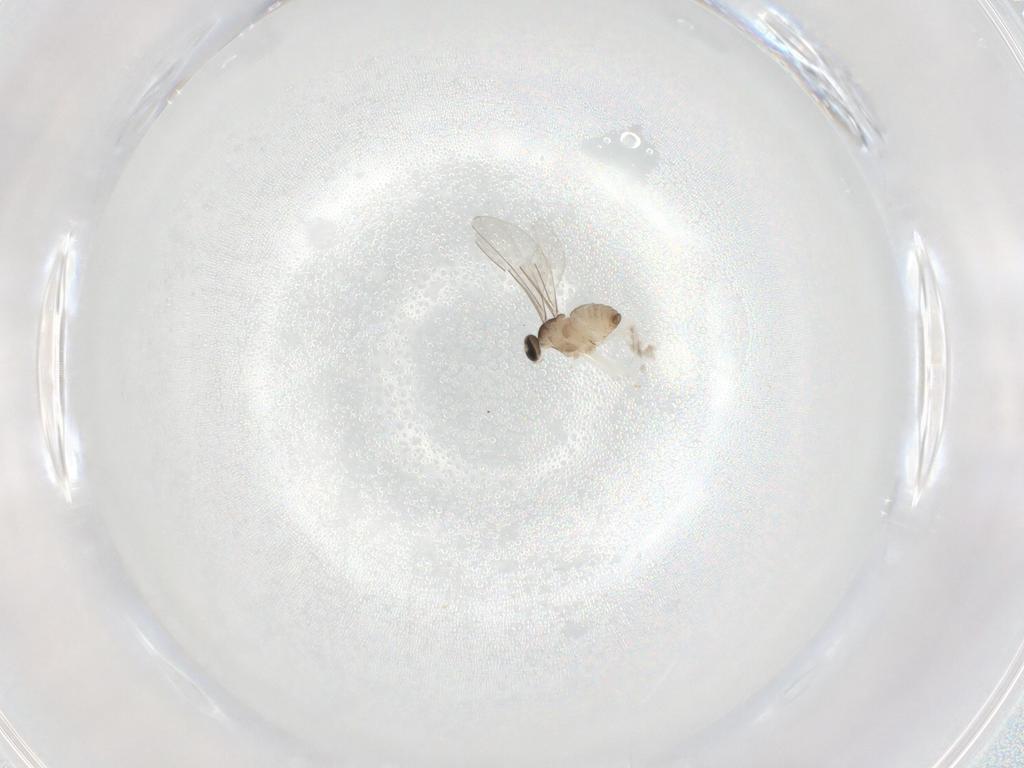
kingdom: Animalia
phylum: Arthropoda
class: Insecta
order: Diptera
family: Cecidomyiidae
